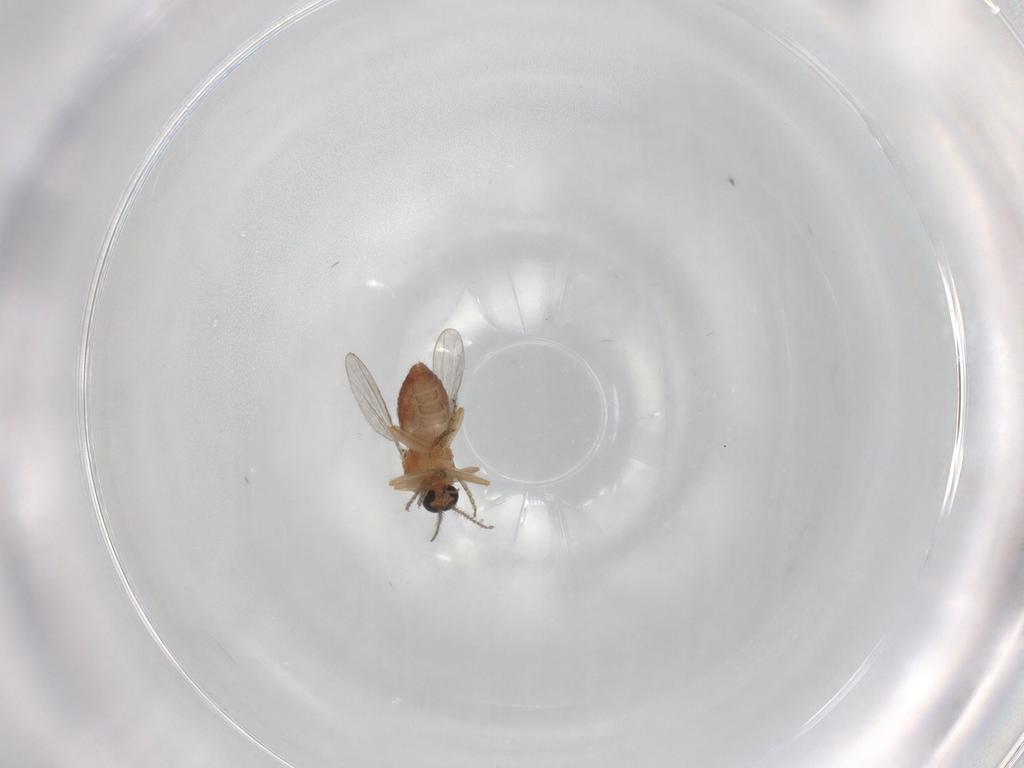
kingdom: Animalia
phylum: Arthropoda
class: Insecta
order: Diptera
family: Ceratopogonidae
